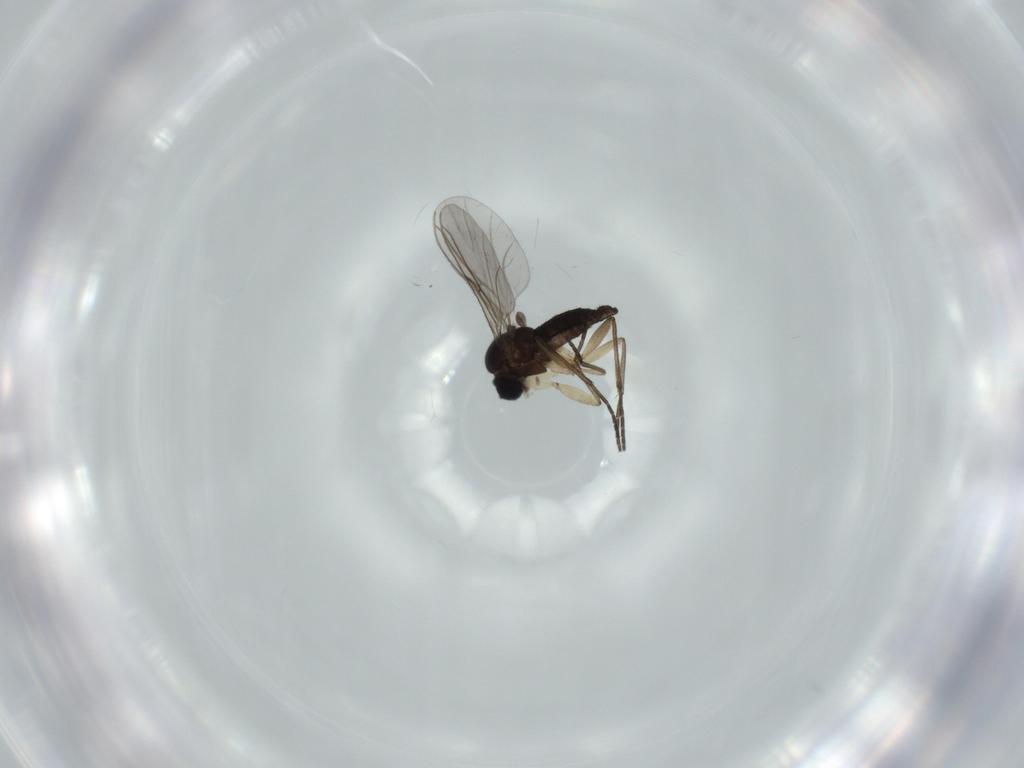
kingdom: Animalia
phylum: Arthropoda
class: Insecta
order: Diptera
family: Sciaridae
